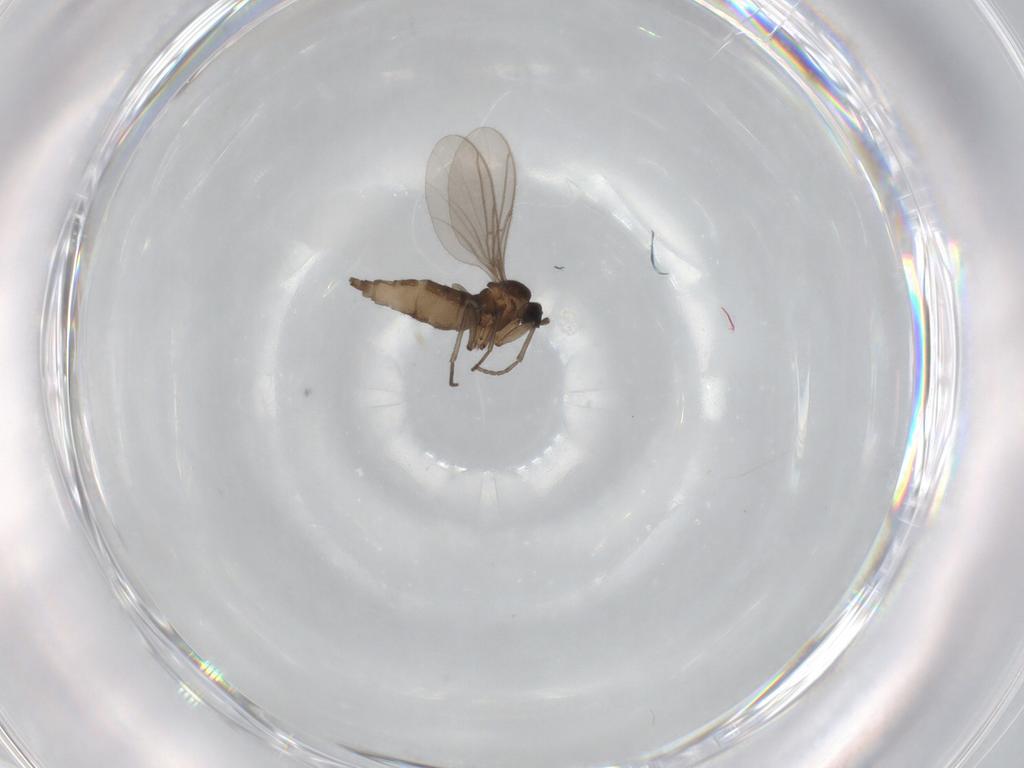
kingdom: Animalia
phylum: Arthropoda
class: Insecta
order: Diptera
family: Sciaridae
